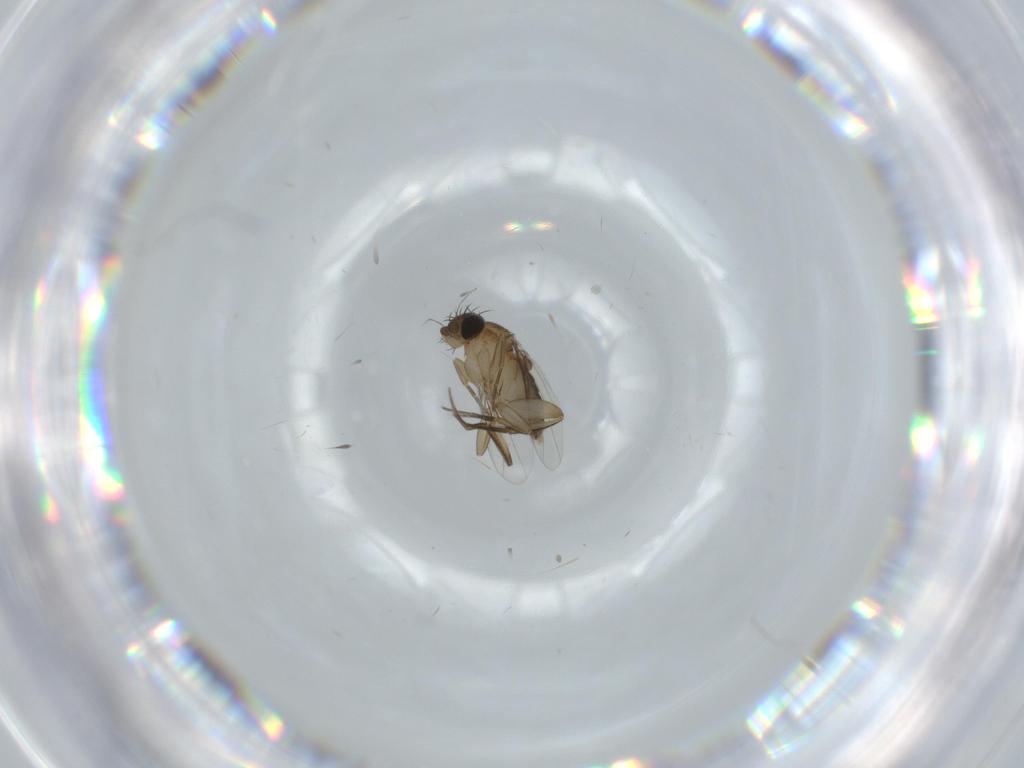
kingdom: Animalia
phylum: Arthropoda
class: Insecta
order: Diptera
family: Phoridae
